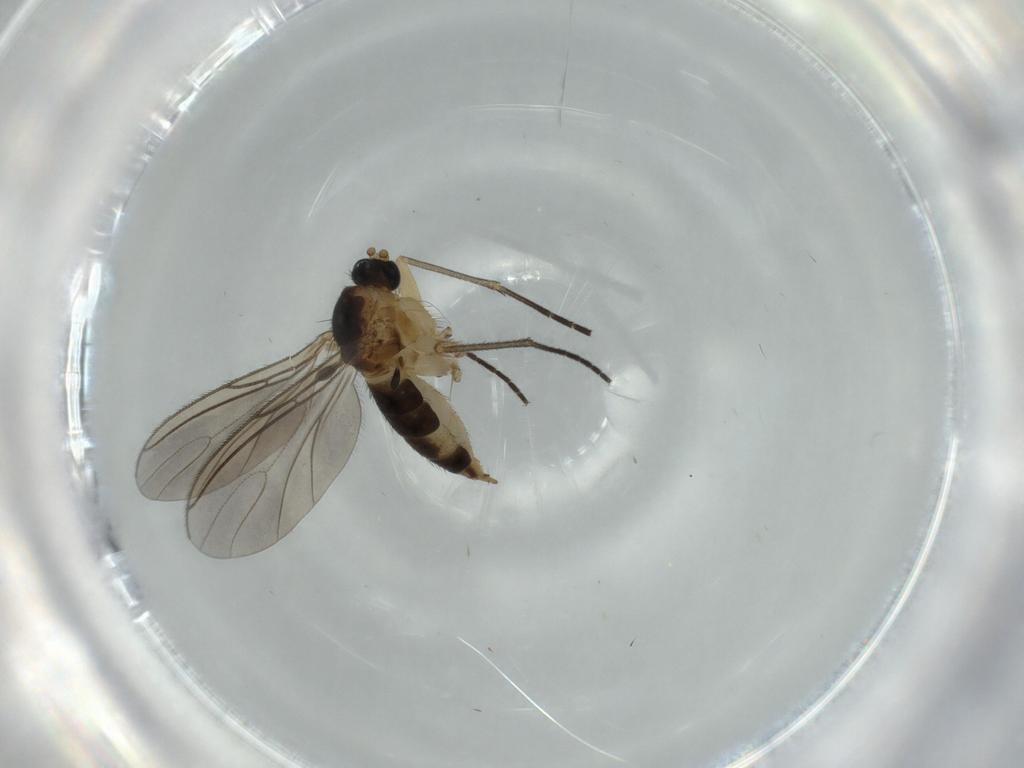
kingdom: Animalia
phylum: Arthropoda
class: Insecta
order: Diptera
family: Sciaridae
